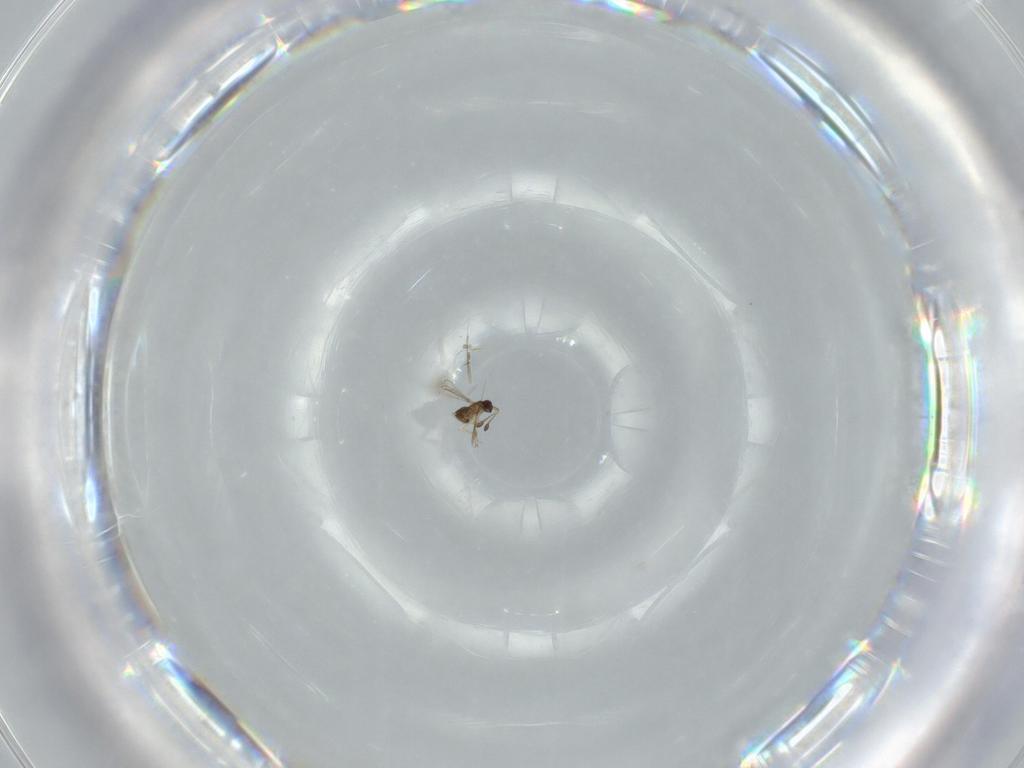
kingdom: Animalia
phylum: Arthropoda
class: Insecta
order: Hymenoptera
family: Mymaridae
